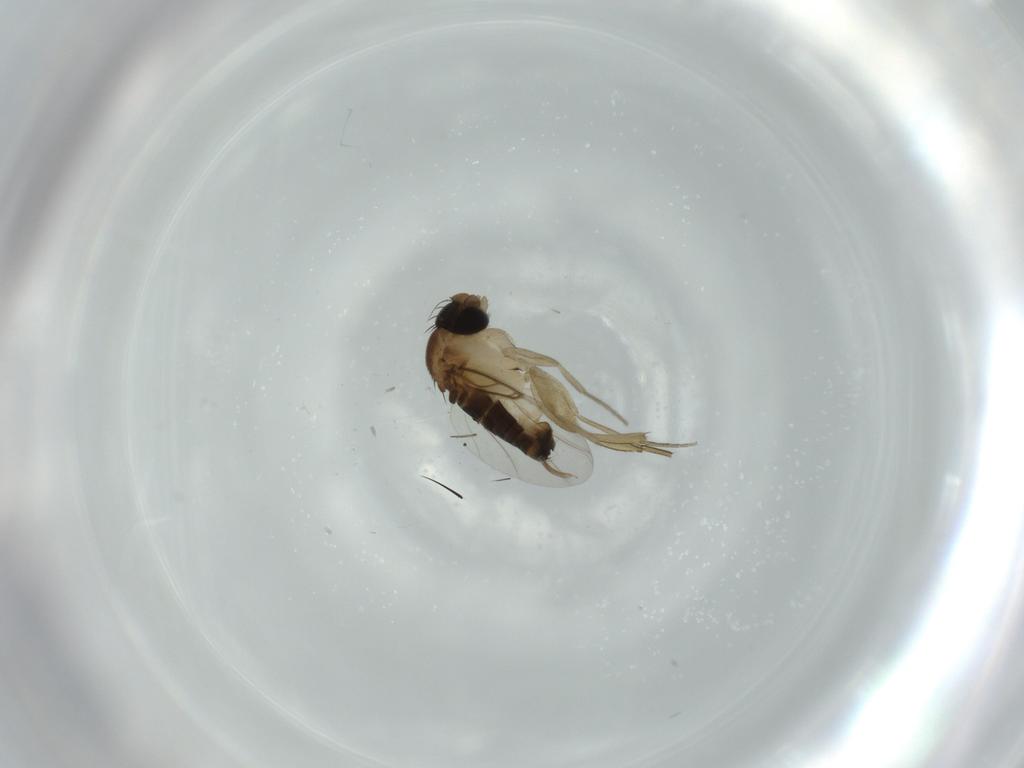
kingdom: Animalia
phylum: Arthropoda
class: Insecta
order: Diptera
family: Phoridae
